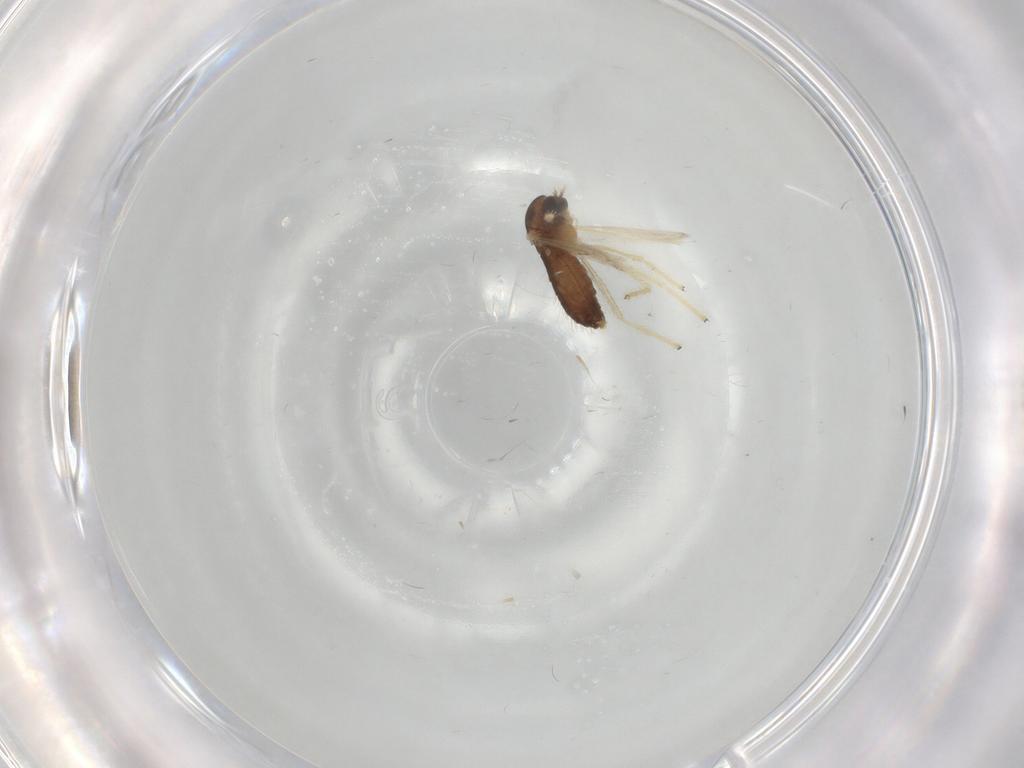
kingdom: Animalia
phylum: Arthropoda
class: Insecta
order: Diptera
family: Chironomidae
